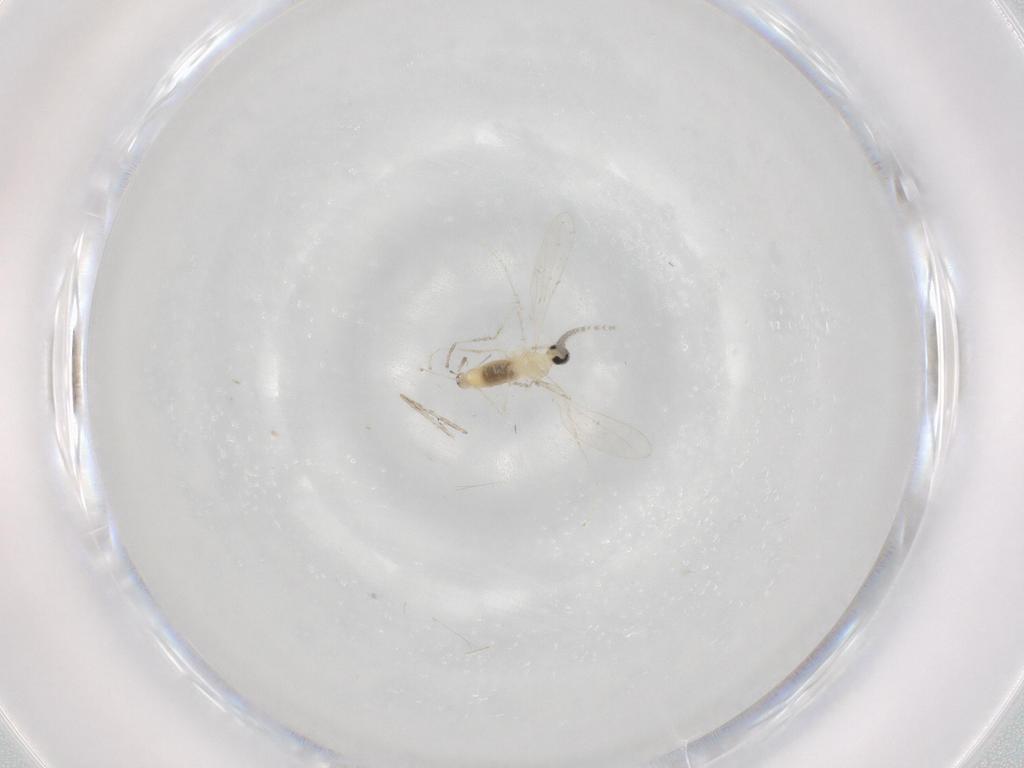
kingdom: Animalia
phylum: Arthropoda
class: Insecta
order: Diptera
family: Cecidomyiidae
